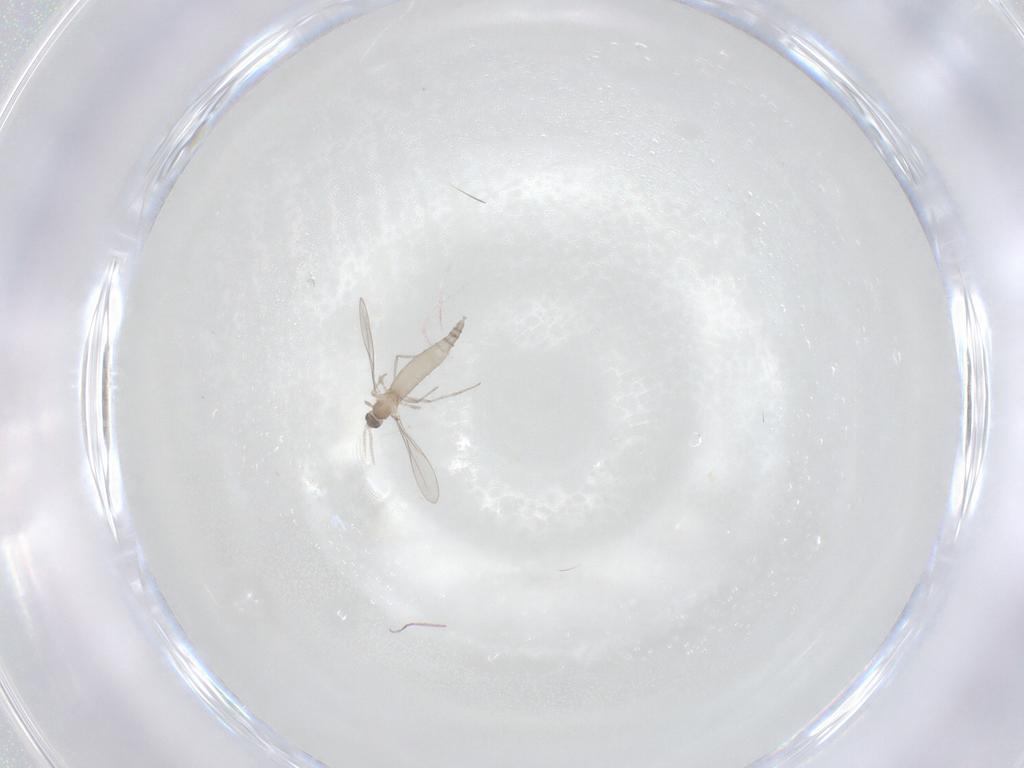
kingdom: Animalia
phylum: Arthropoda
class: Insecta
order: Diptera
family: Cecidomyiidae
